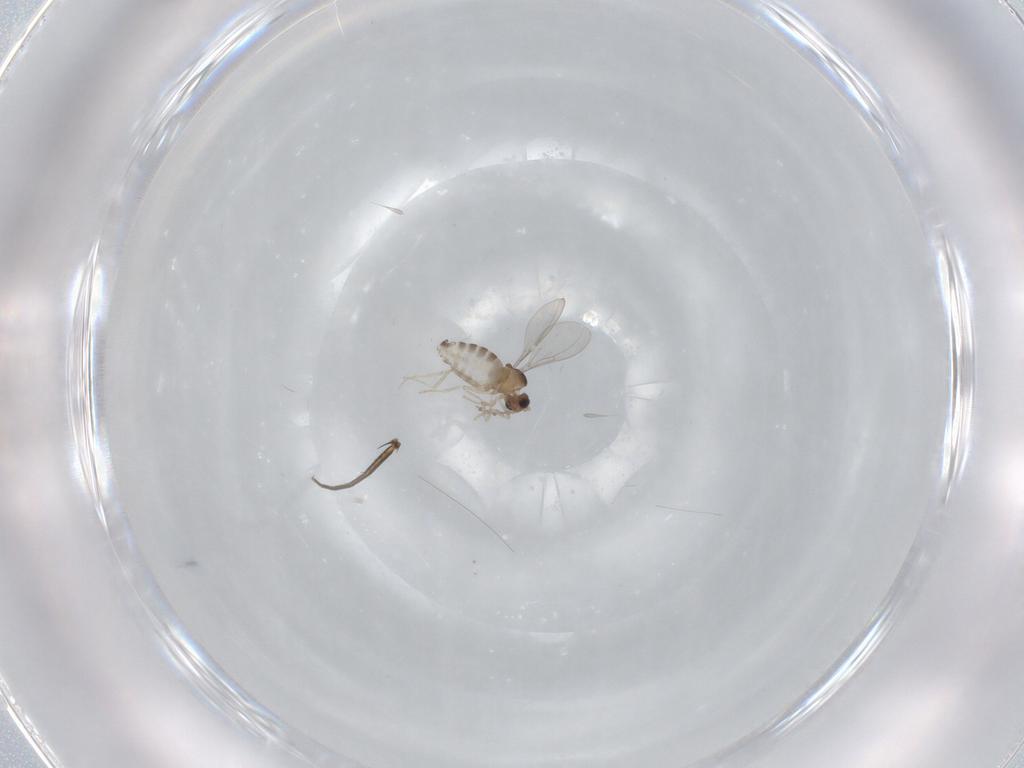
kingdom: Animalia
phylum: Arthropoda
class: Insecta
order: Diptera
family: Cecidomyiidae
